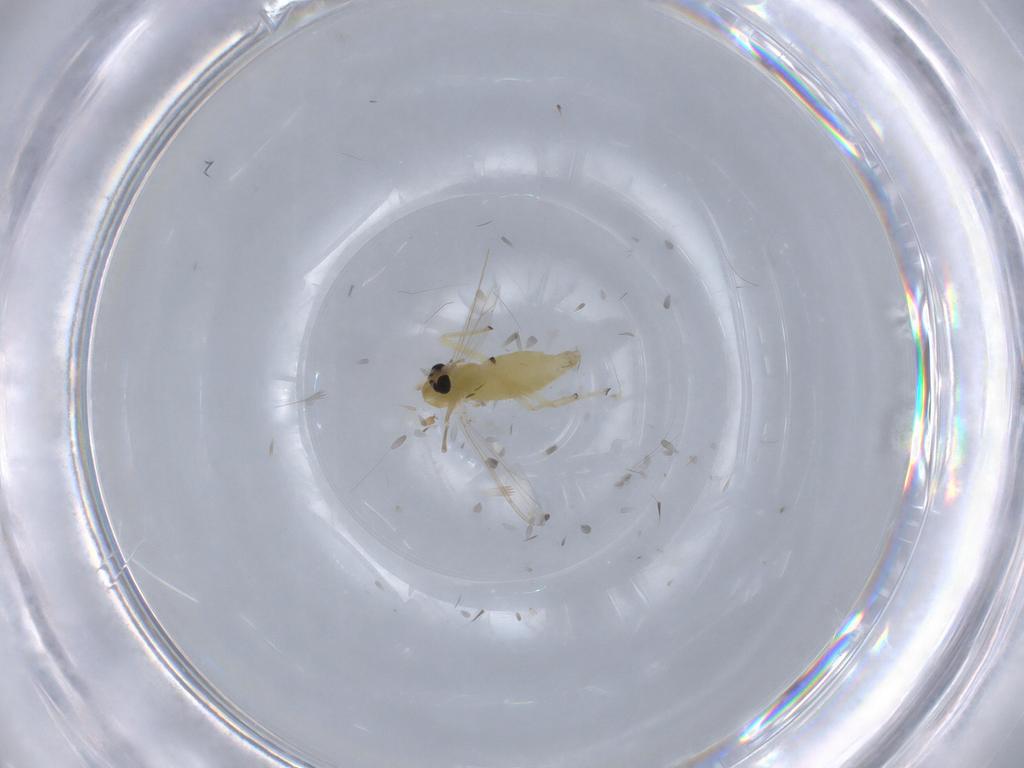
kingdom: Animalia
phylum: Arthropoda
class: Insecta
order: Diptera
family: Chironomidae
